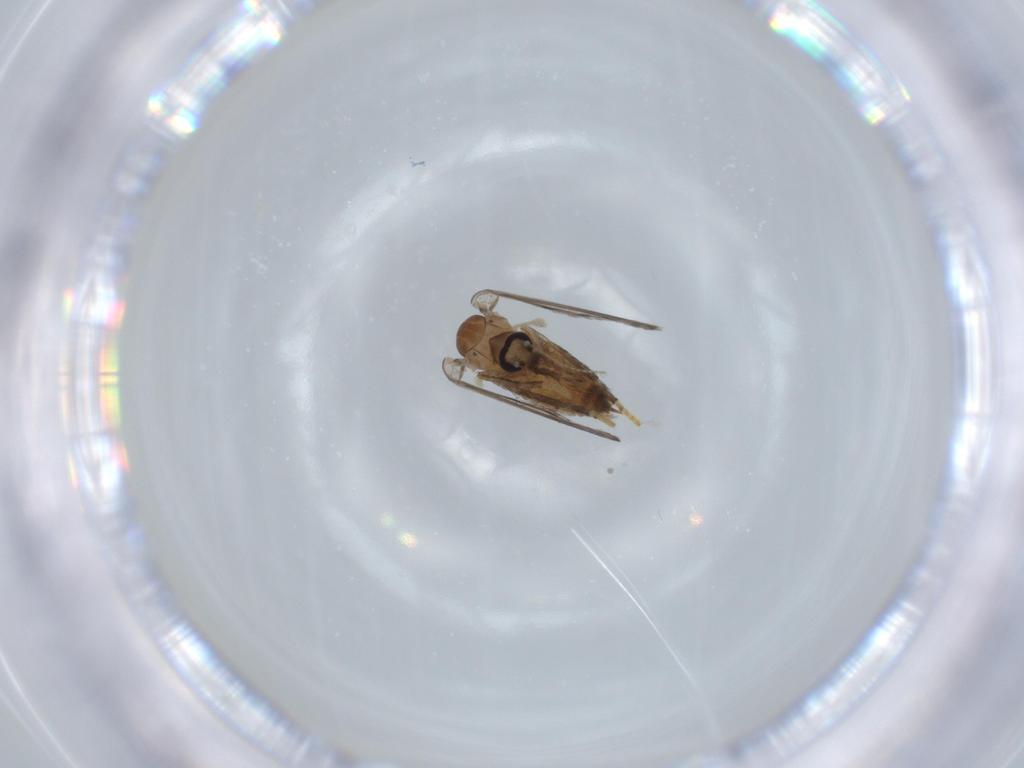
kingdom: Animalia
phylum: Arthropoda
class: Insecta
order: Diptera
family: Psychodidae
